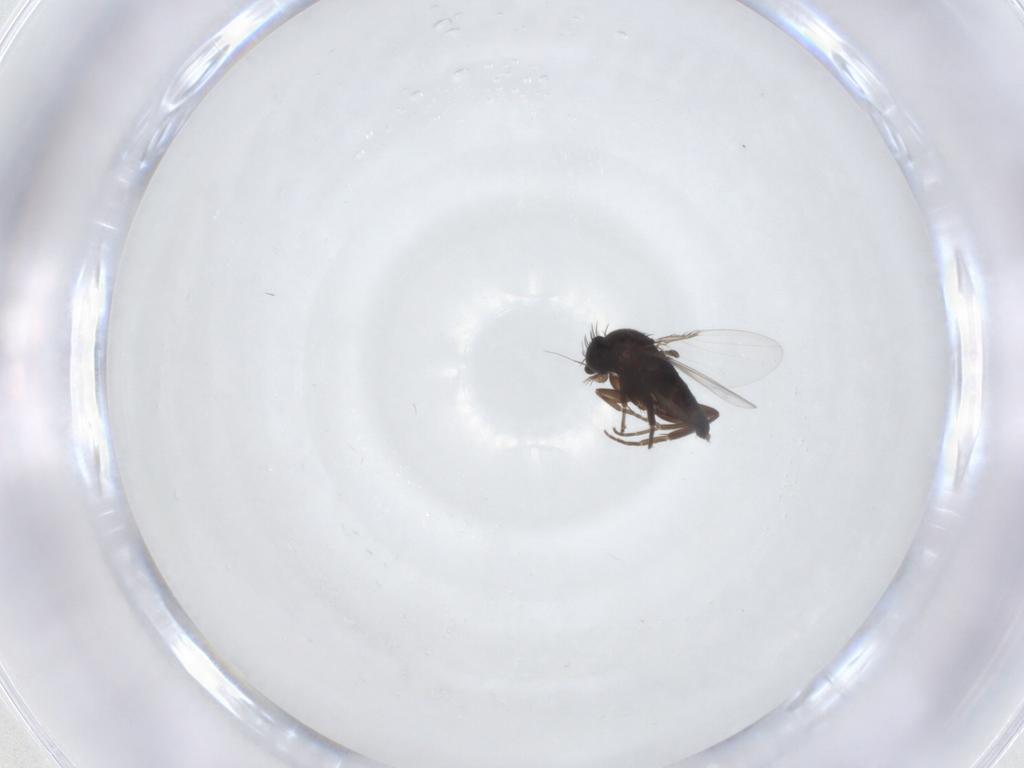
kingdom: Animalia
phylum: Arthropoda
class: Insecta
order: Diptera
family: Phoridae
